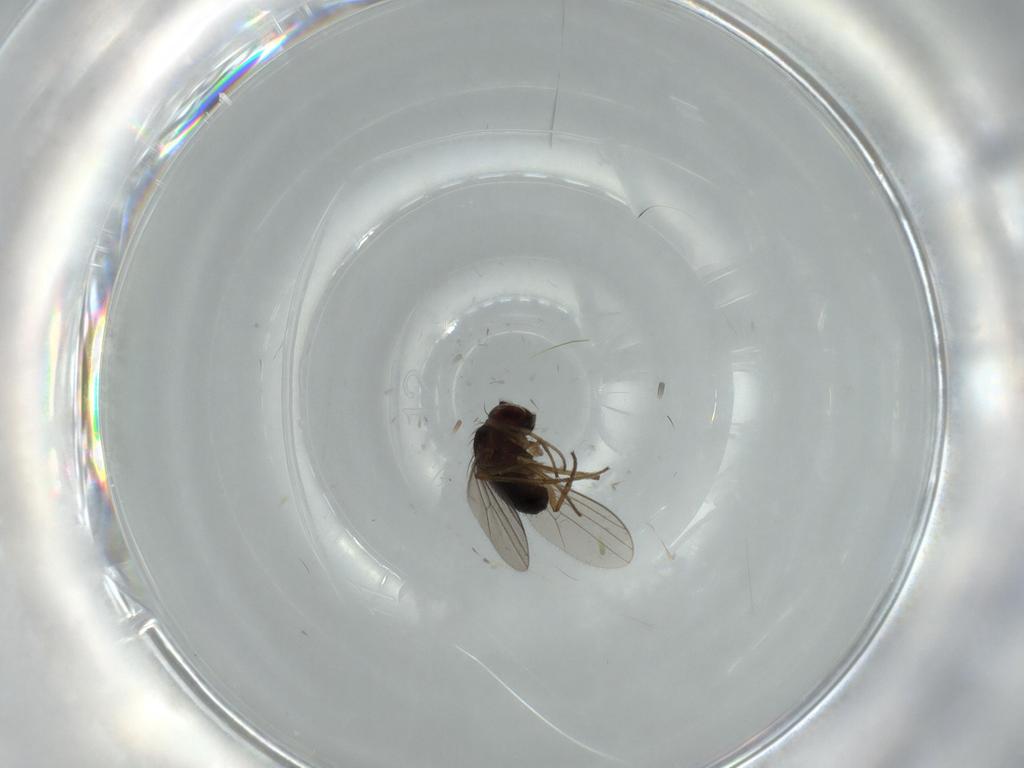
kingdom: Animalia
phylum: Arthropoda
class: Insecta
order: Diptera
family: Dolichopodidae
